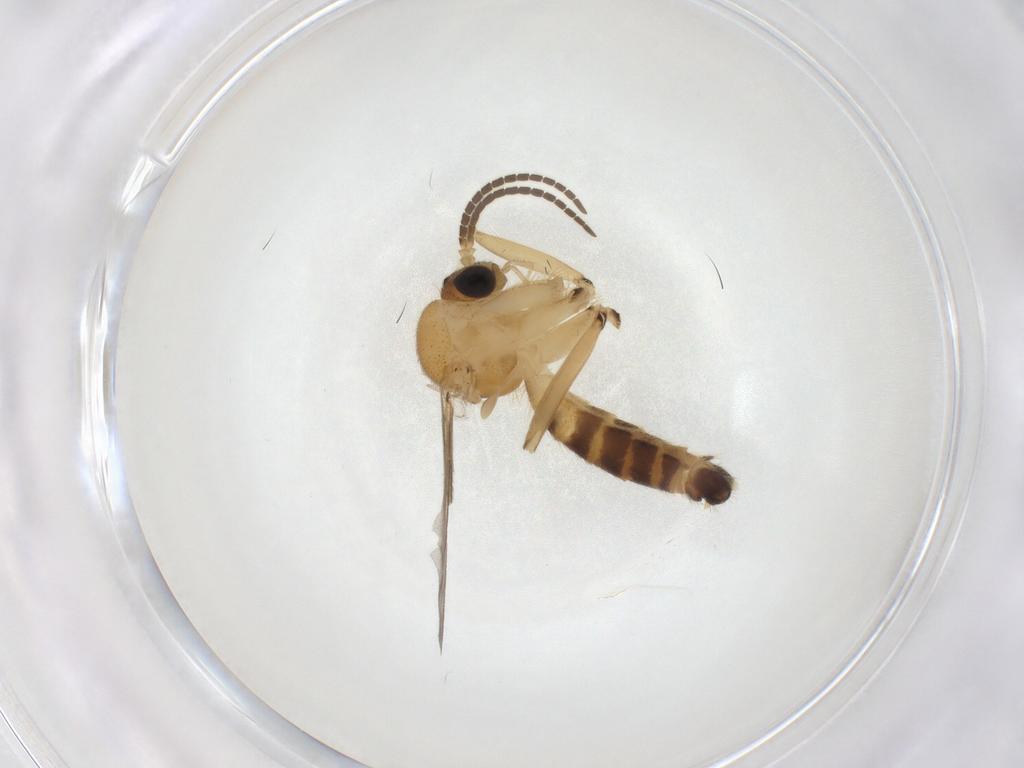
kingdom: Animalia
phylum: Arthropoda
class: Insecta
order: Diptera
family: Mycetophilidae
